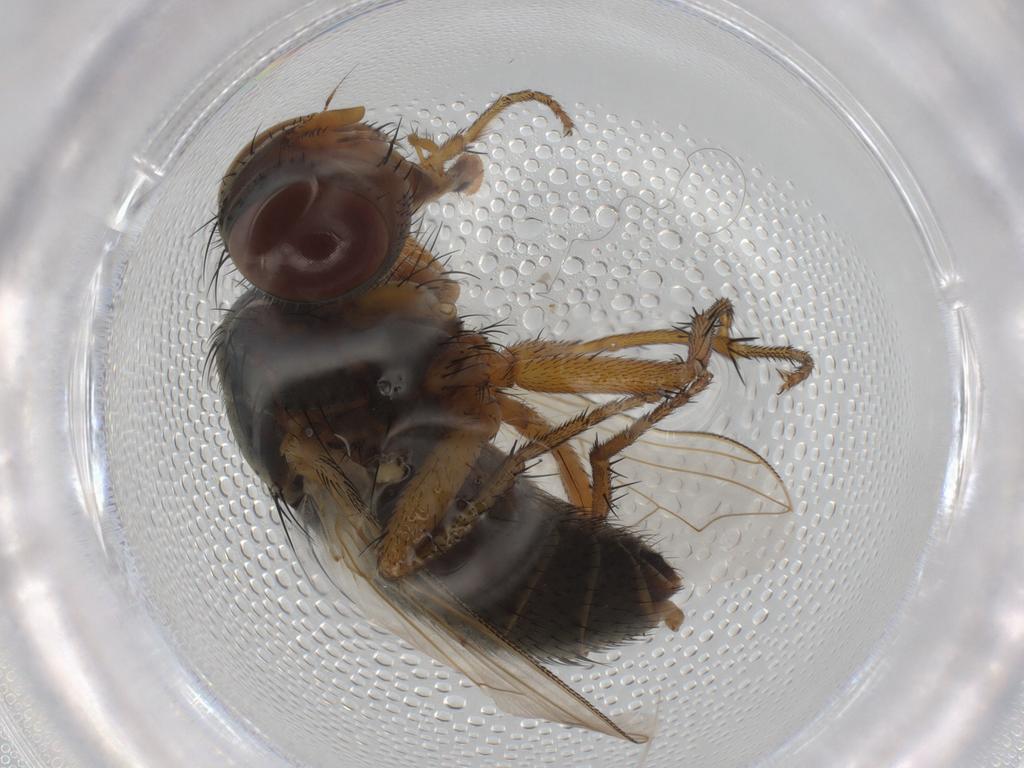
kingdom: Animalia
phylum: Arthropoda
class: Insecta
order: Diptera
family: Sarcophagidae
